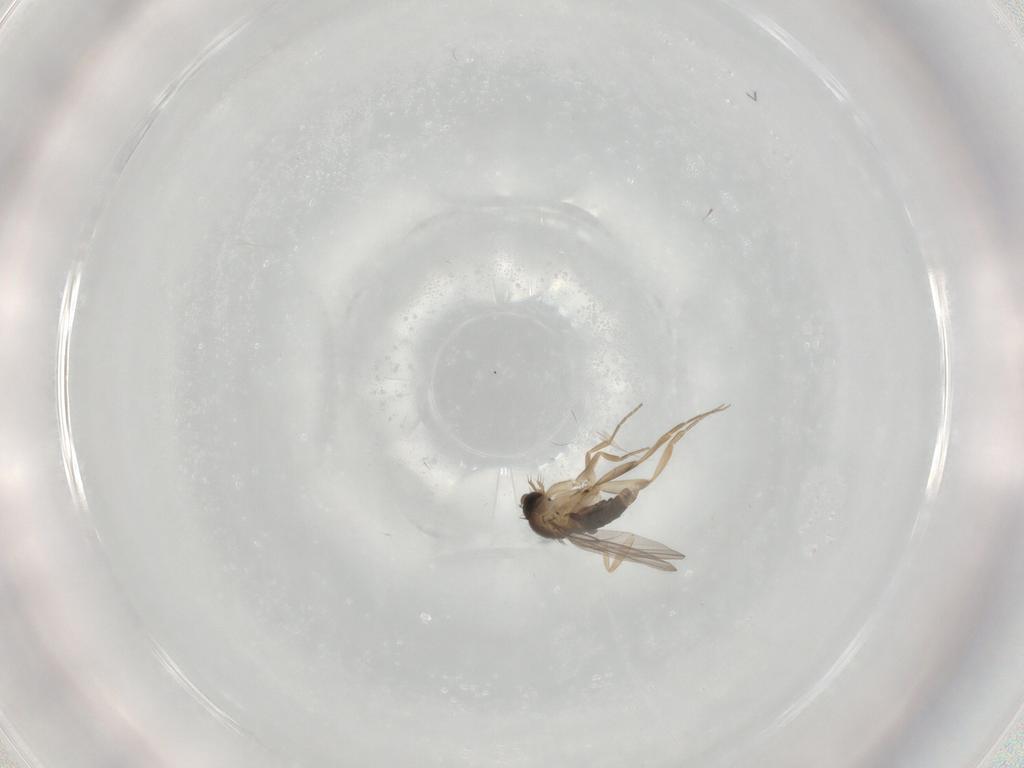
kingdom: Animalia
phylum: Arthropoda
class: Insecta
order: Diptera
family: Phoridae
